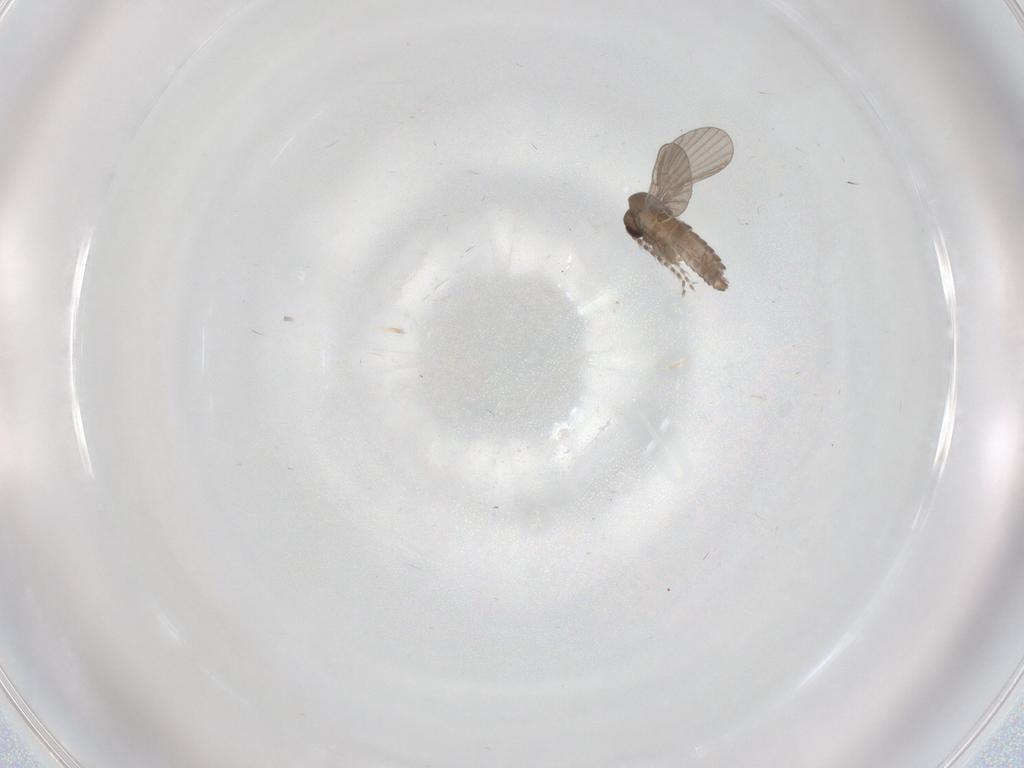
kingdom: Animalia
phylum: Arthropoda
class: Insecta
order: Diptera
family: Cecidomyiidae
